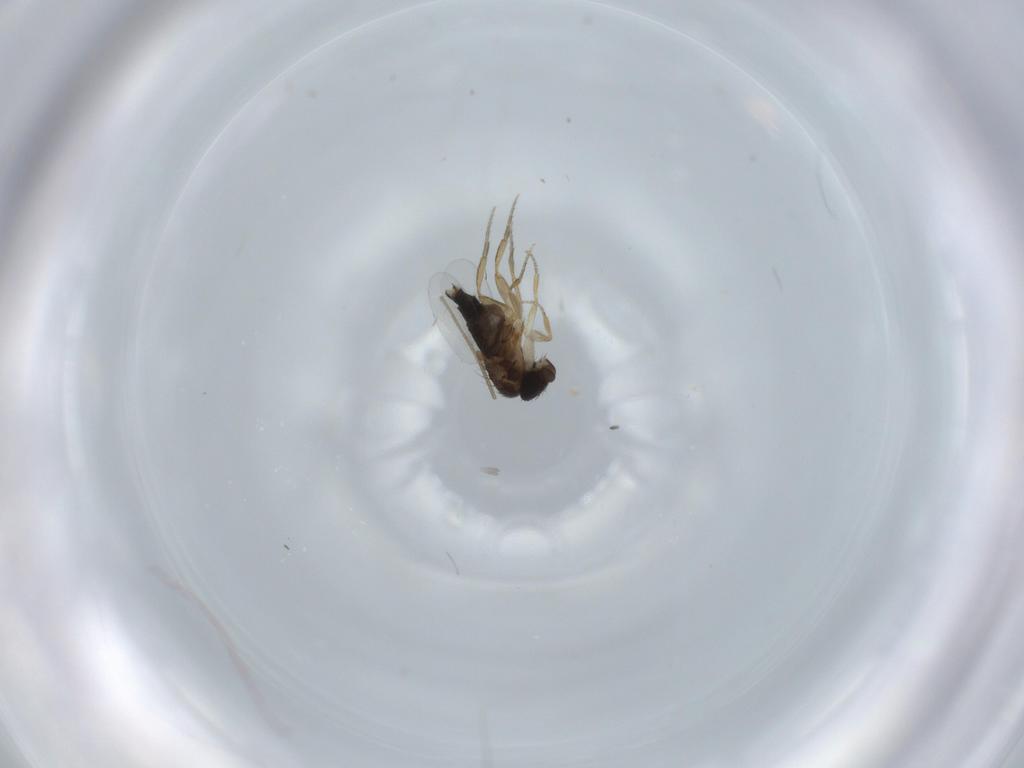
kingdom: Animalia
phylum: Arthropoda
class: Insecta
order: Diptera
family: Phoridae
